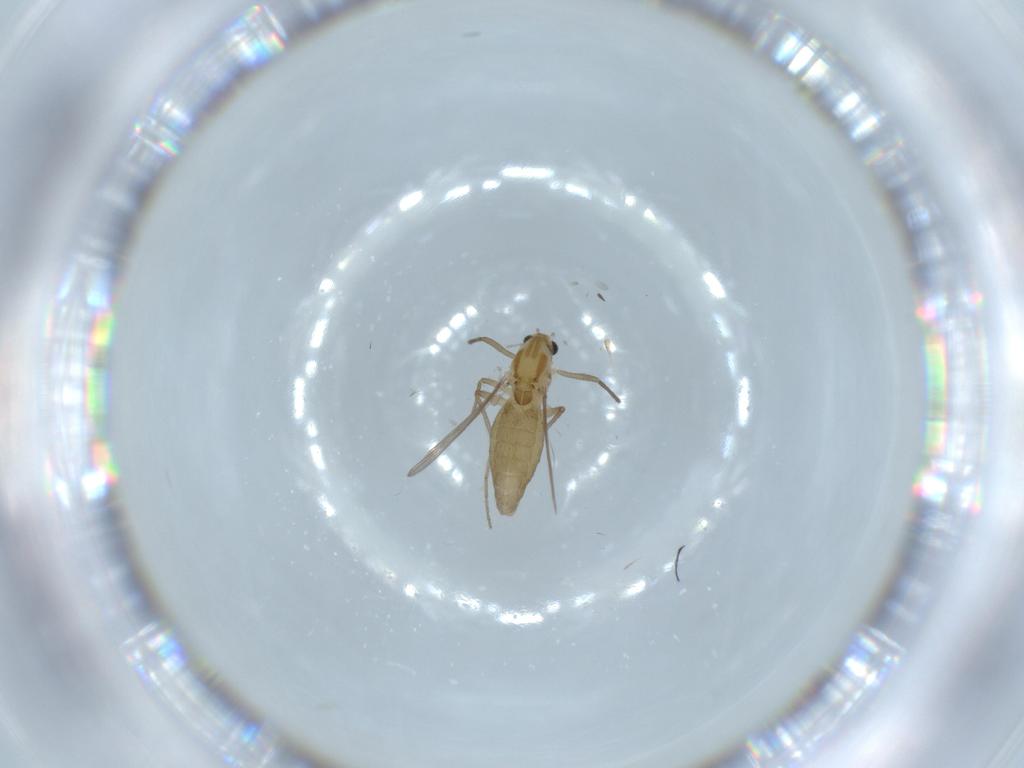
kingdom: Animalia
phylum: Arthropoda
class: Insecta
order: Diptera
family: Chironomidae
